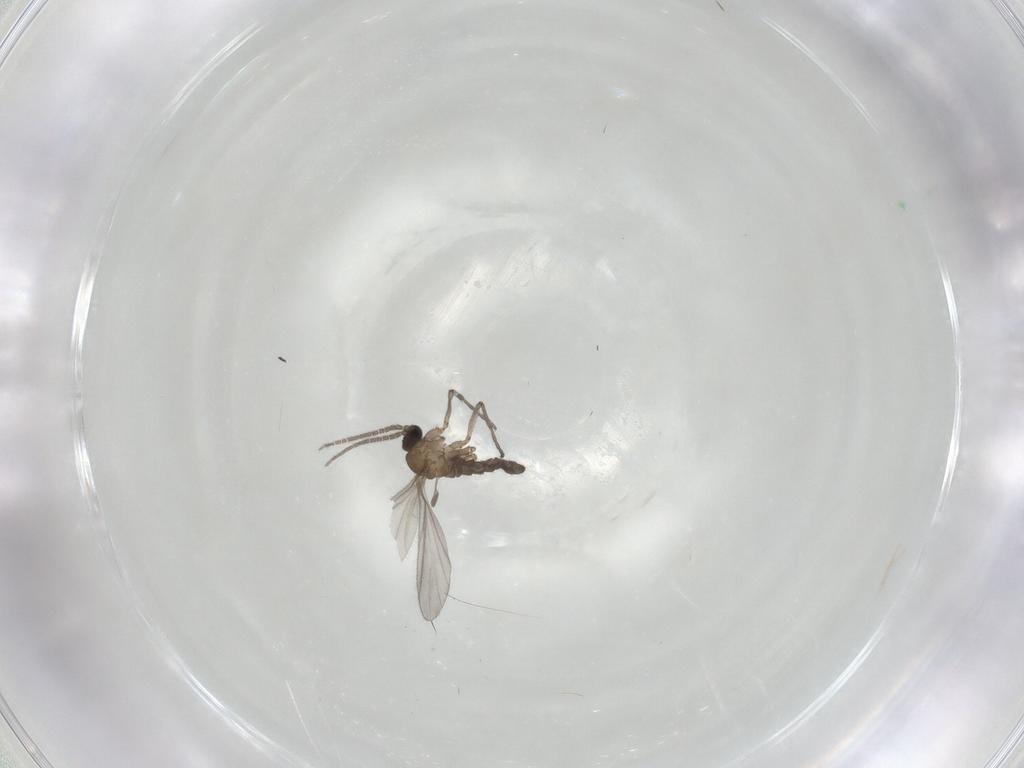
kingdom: Animalia
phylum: Arthropoda
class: Insecta
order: Diptera
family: Sciaridae
